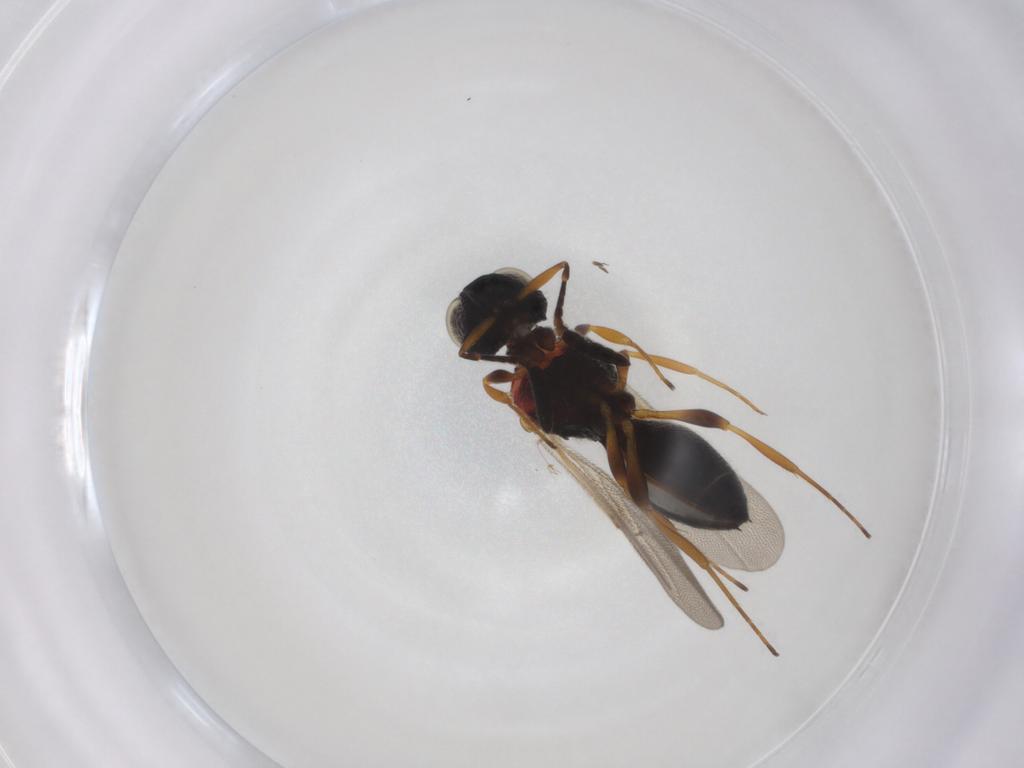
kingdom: Animalia
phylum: Arthropoda
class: Insecta
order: Hymenoptera
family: Scelionidae
